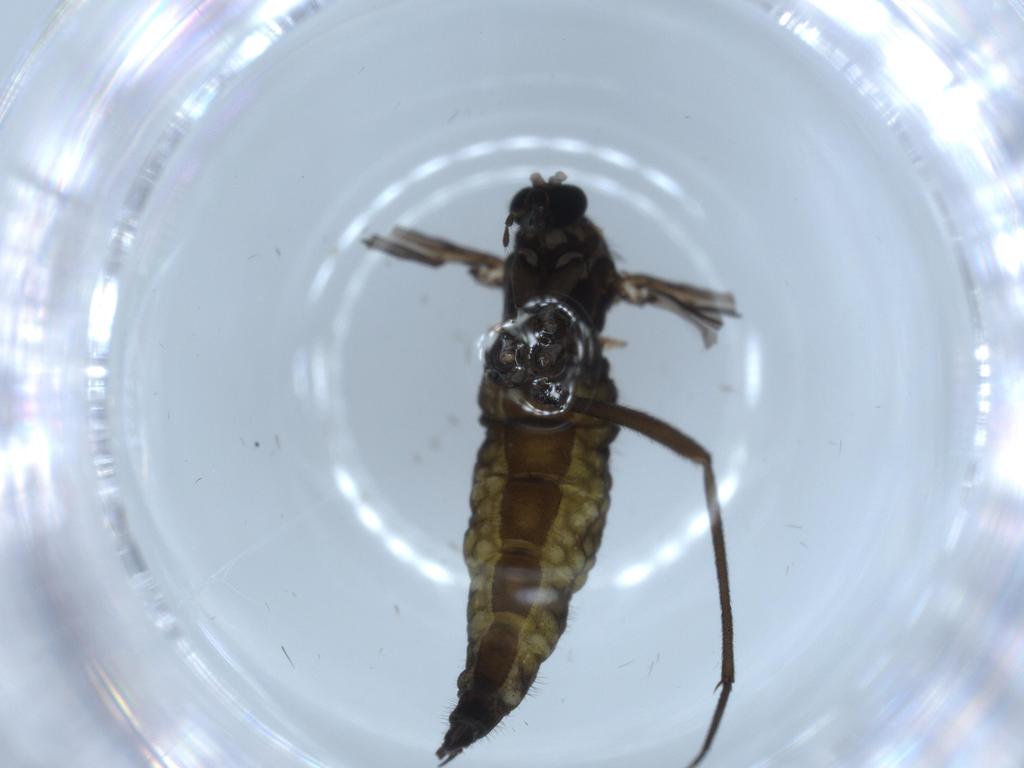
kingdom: Animalia
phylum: Arthropoda
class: Insecta
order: Diptera
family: Sciaridae
